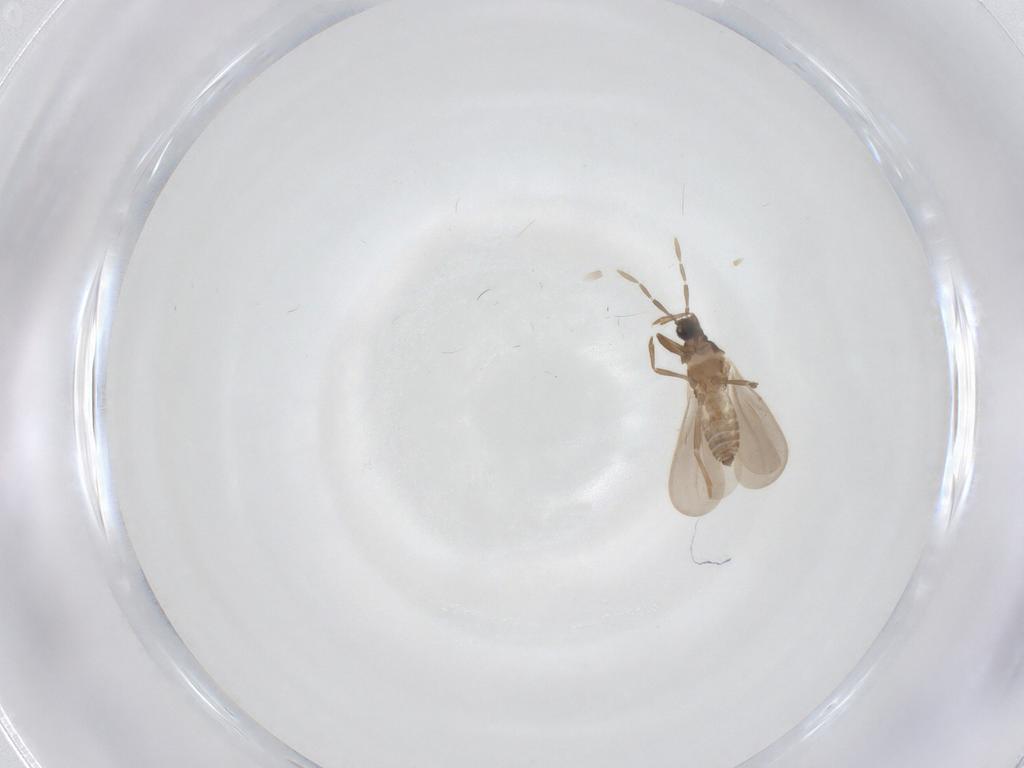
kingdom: Animalia
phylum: Arthropoda
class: Insecta
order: Hemiptera
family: Enicocephalidae
